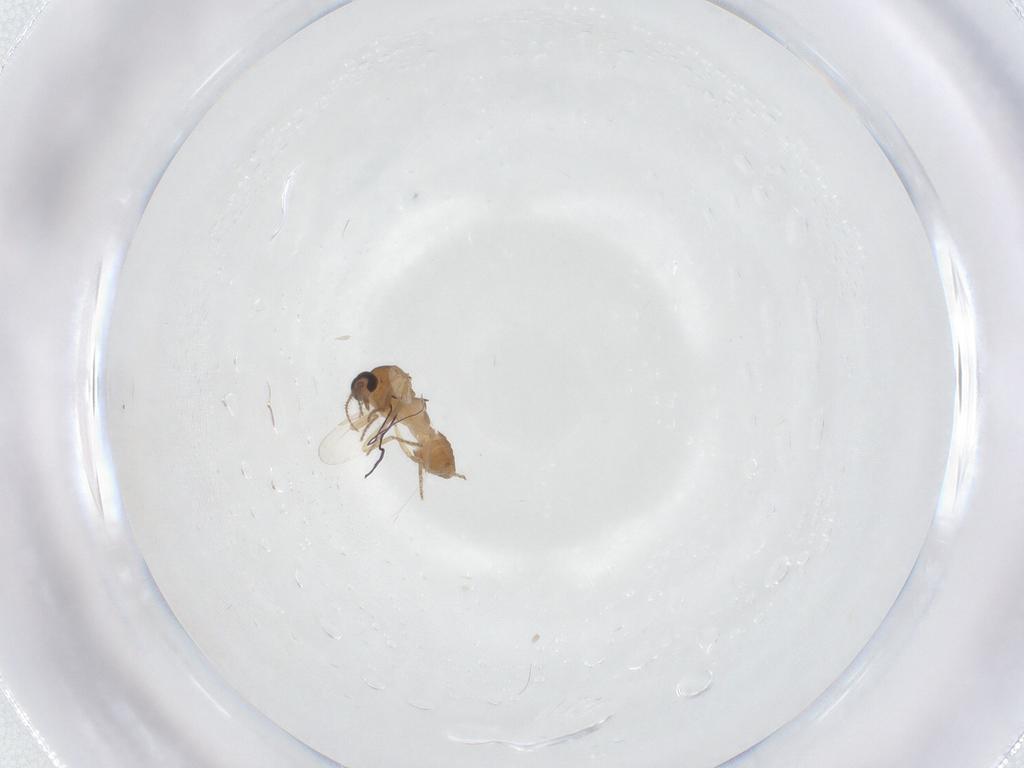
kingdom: Animalia
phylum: Arthropoda
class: Insecta
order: Diptera
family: Ceratopogonidae
